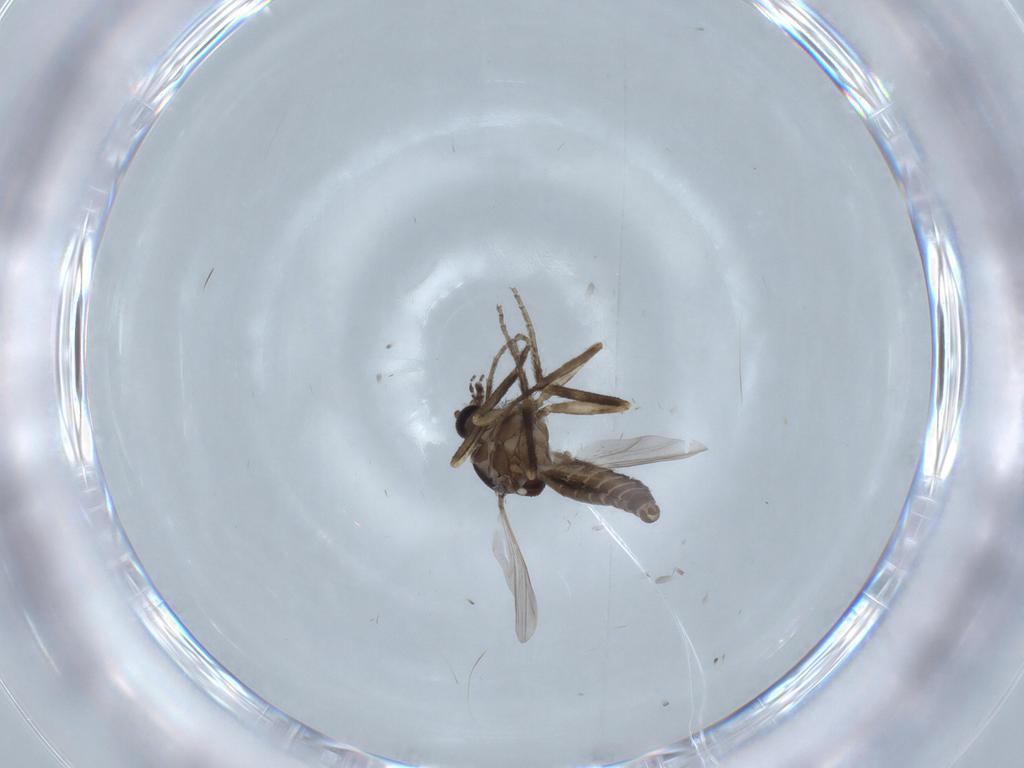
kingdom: Animalia
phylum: Arthropoda
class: Insecta
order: Diptera
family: Ceratopogonidae
